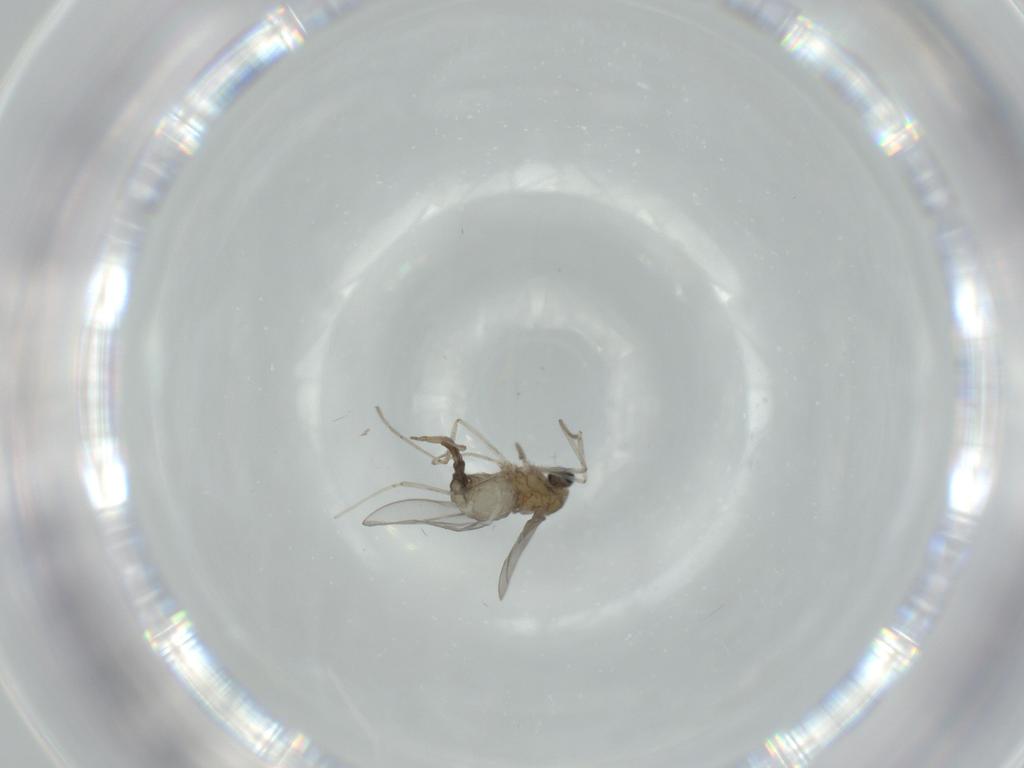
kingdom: Animalia
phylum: Arthropoda
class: Insecta
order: Diptera
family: Cecidomyiidae
